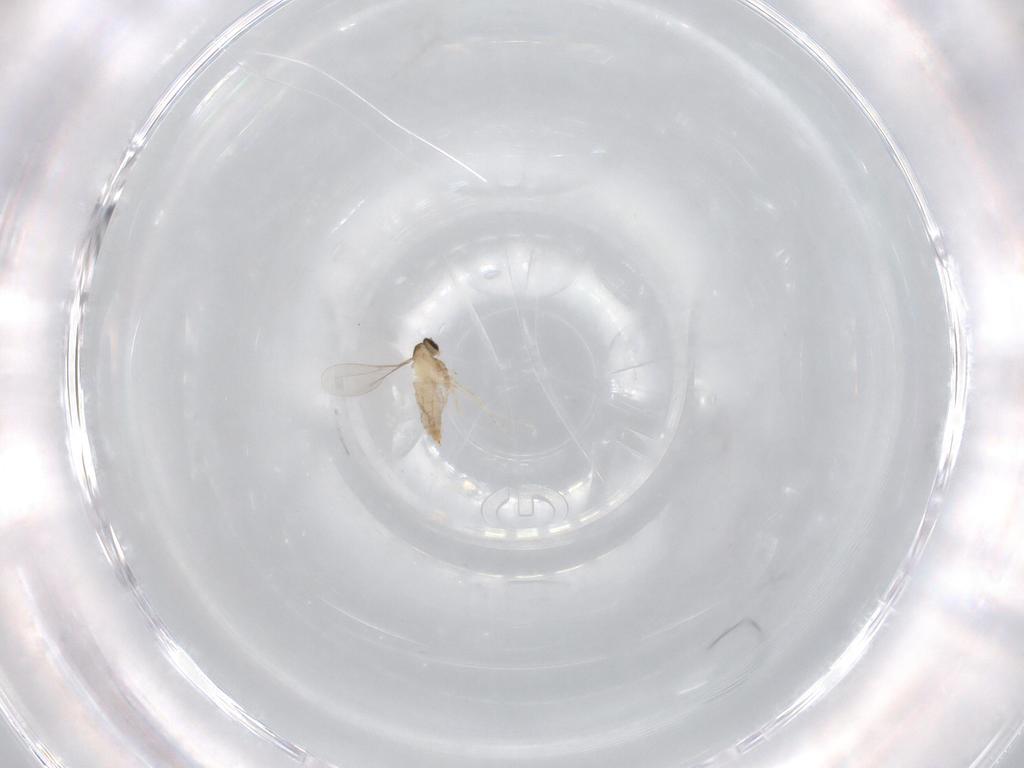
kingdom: Animalia
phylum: Arthropoda
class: Insecta
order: Diptera
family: Cecidomyiidae
